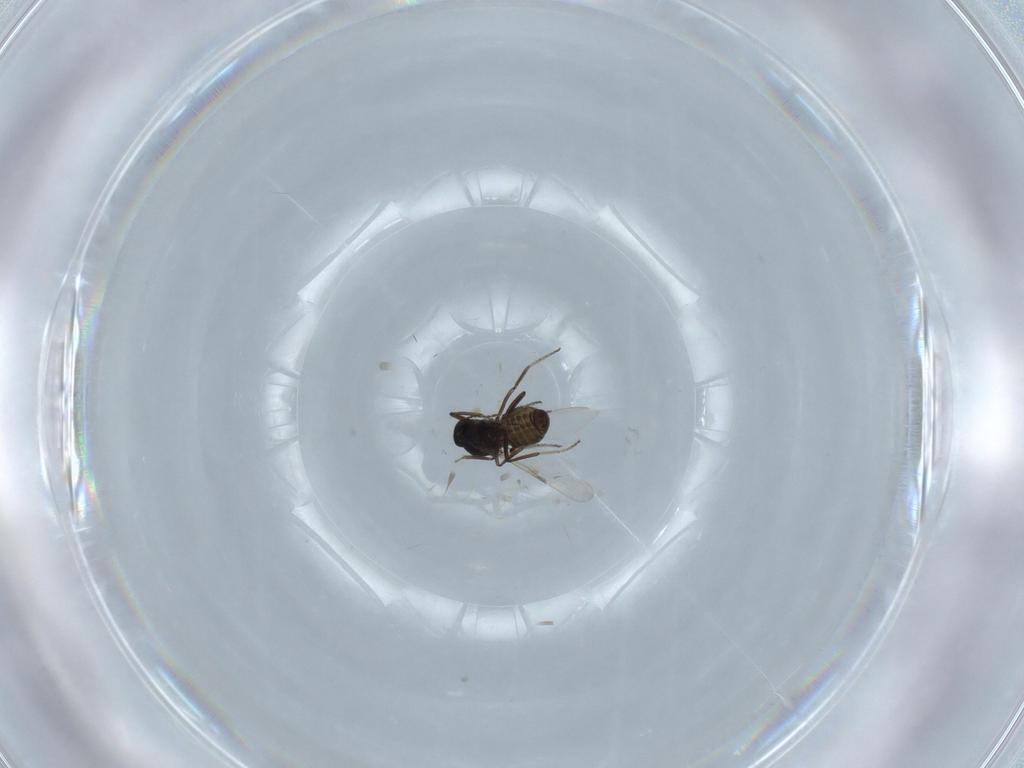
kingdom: Animalia
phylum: Arthropoda
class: Insecta
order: Diptera
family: Ceratopogonidae
